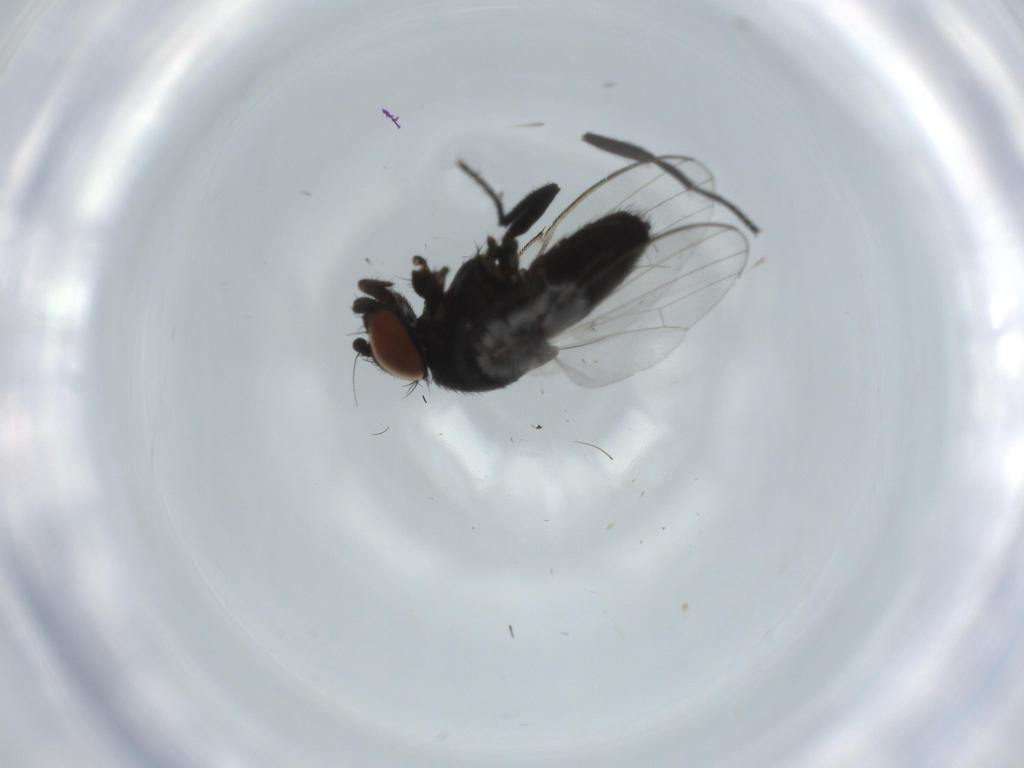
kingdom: Animalia
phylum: Arthropoda
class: Insecta
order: Diptera
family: Milichiidae
